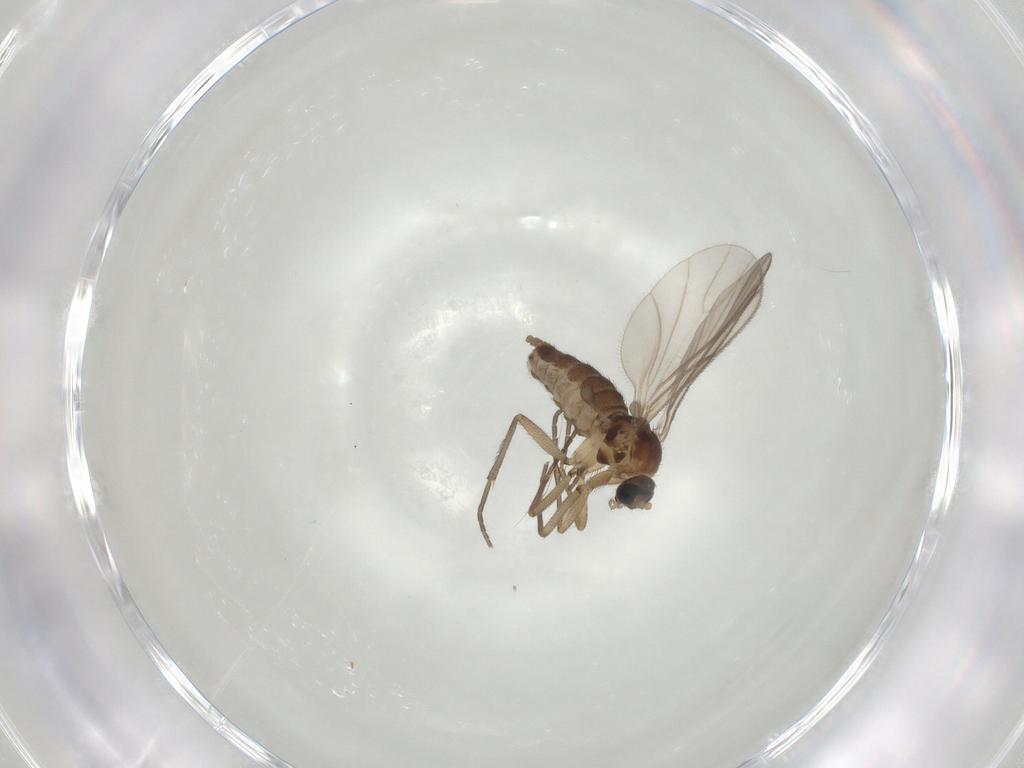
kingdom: Animalia
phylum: Arthropoda
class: Insecta
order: Diptera
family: Sciaridae
